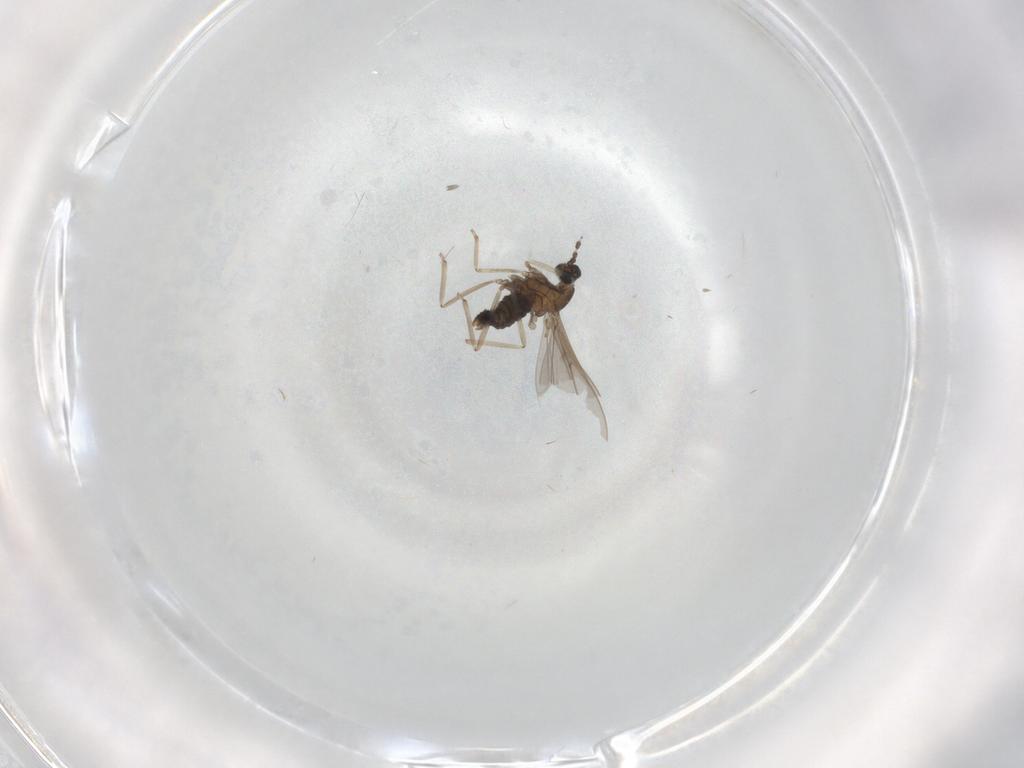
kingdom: Animalia
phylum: Arthropoda
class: Insecta
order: Diptera
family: Cecidomyiidae
